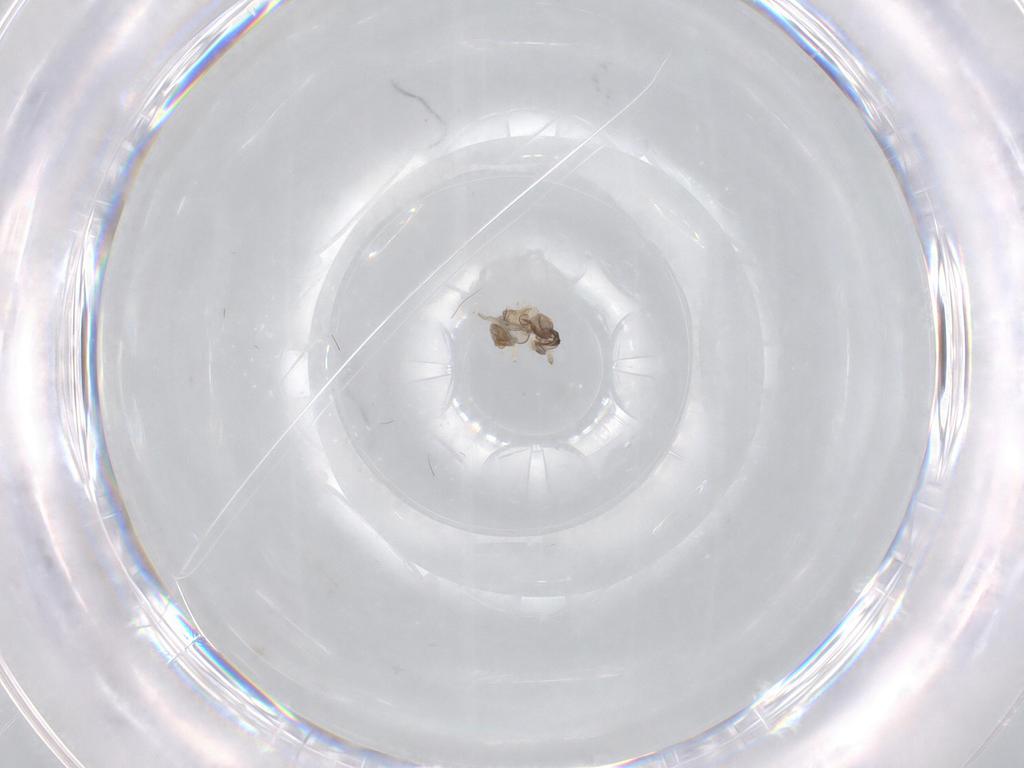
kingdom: Animalia
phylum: Arthropoda
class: Insecta
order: Diptera
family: Cecidomyiidae
